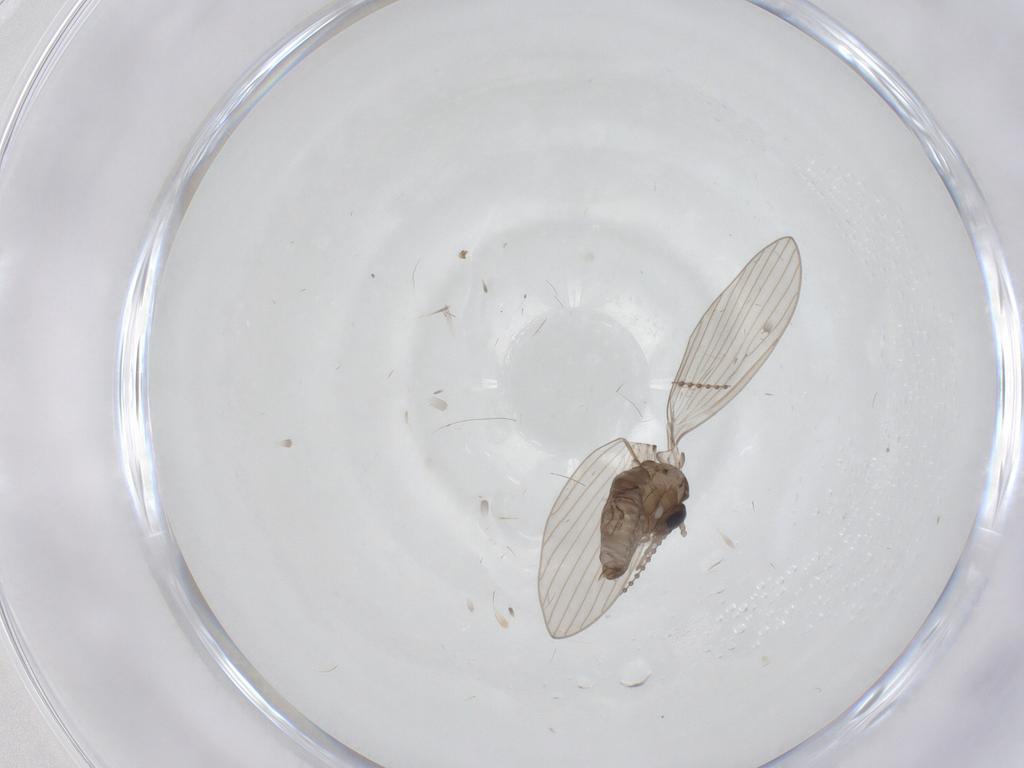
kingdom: Animalia
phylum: Arthropoda
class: Insecta
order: Diptera
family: Psychodidae
